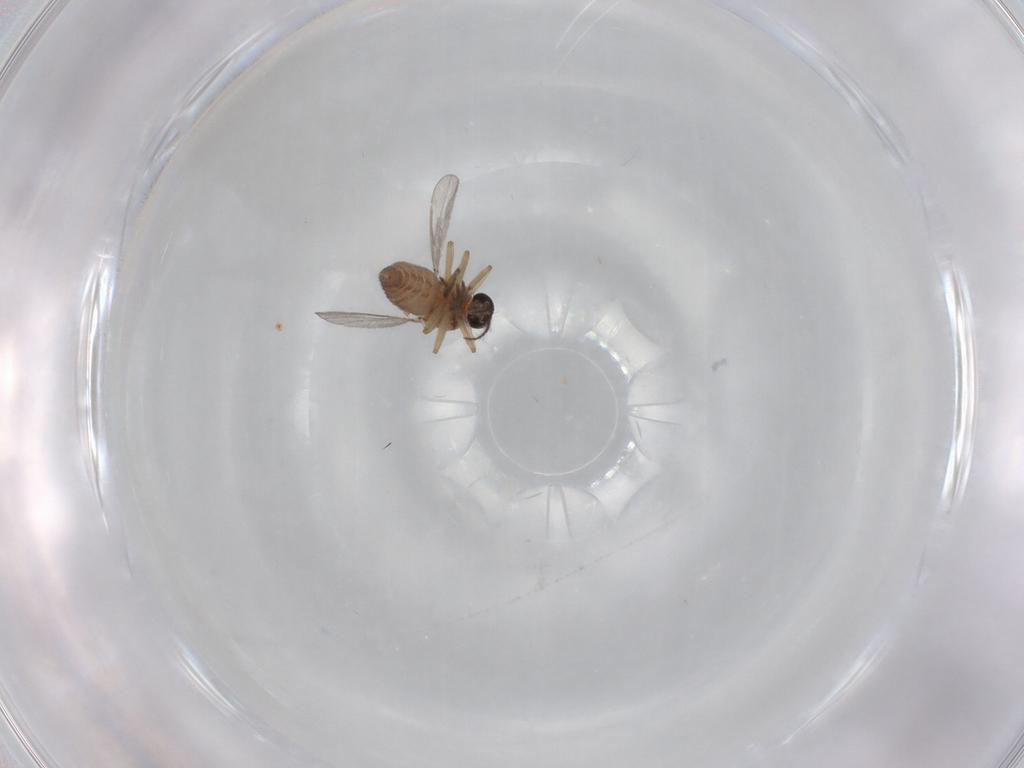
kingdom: Animalia
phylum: Arthropoda
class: Insecta
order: Diptera
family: Ceratopogonidae
